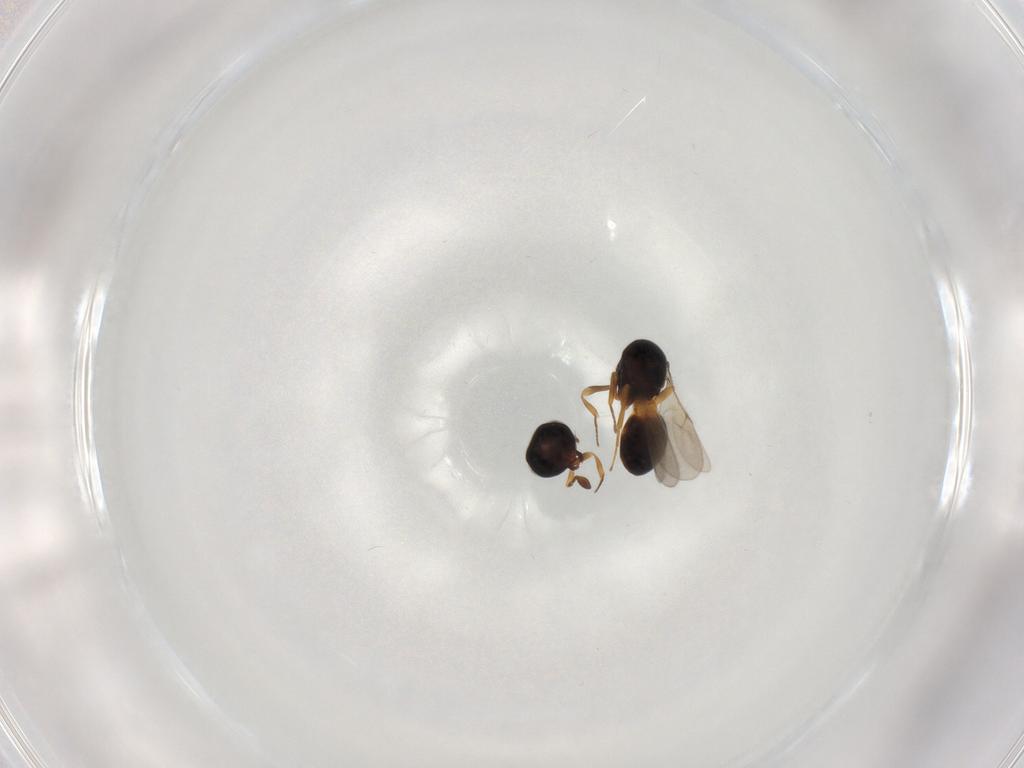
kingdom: Animalia
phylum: Arthropoda
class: Insecta
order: Hymenoptera
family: Scelionidae
